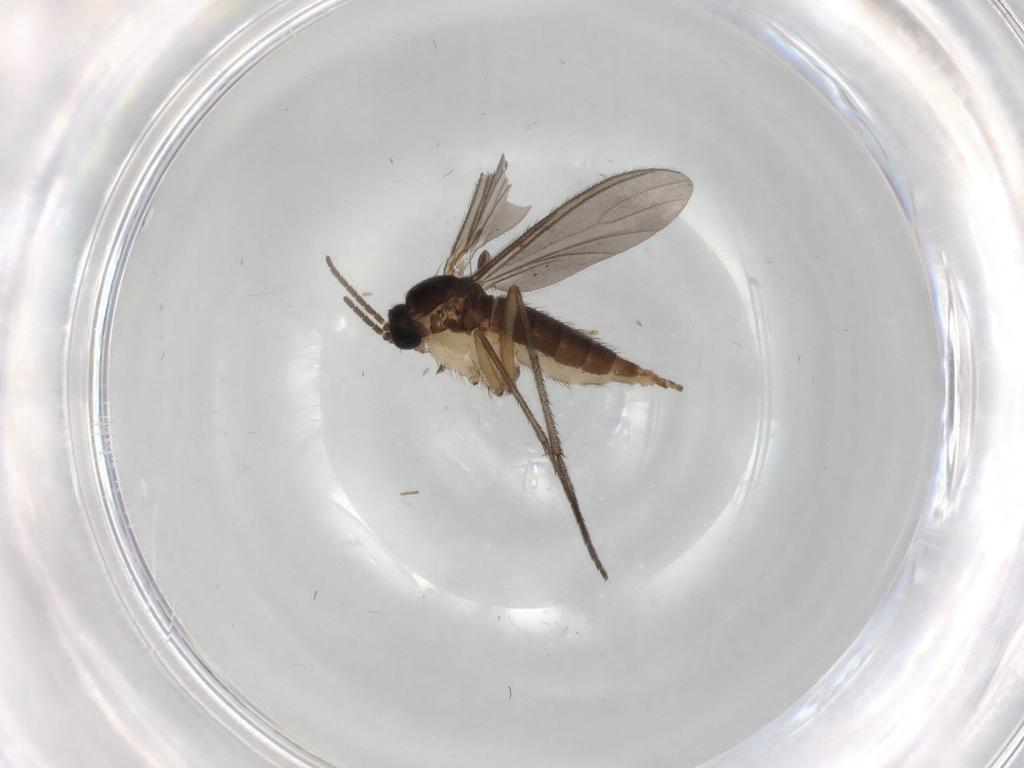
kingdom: Animalia
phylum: Arthropoda
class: Insecta
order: Diptera
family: Sciaridae
